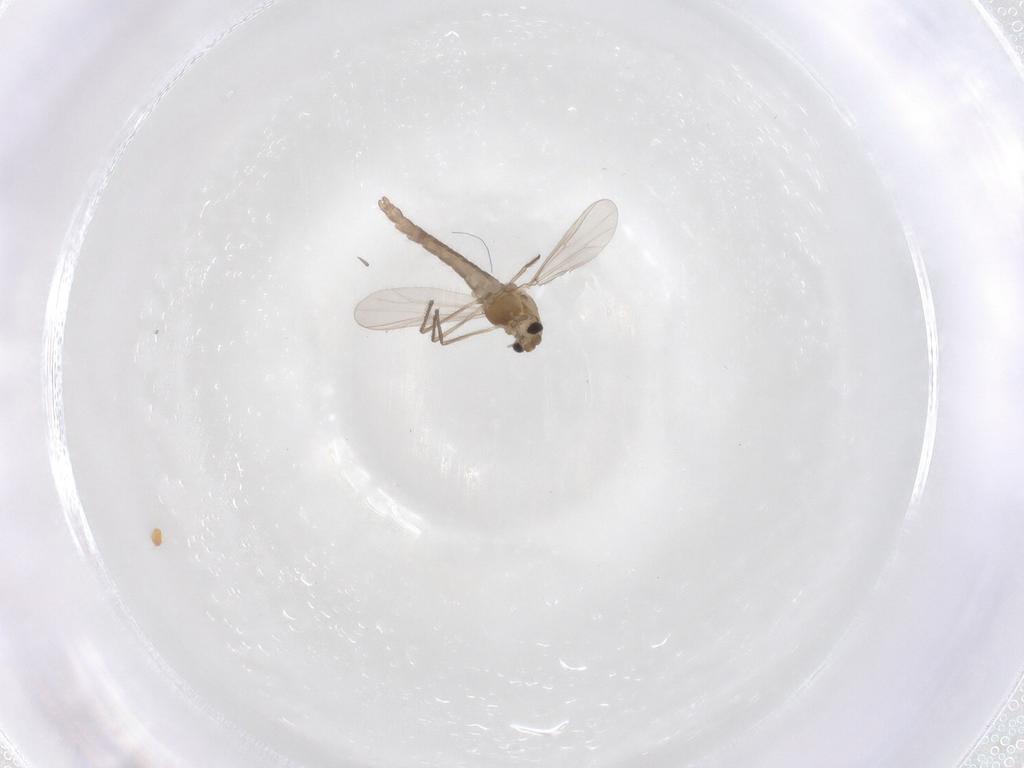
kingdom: Animalia
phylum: Arthropoda
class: Insecta
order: Diptera
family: Chironomidae
